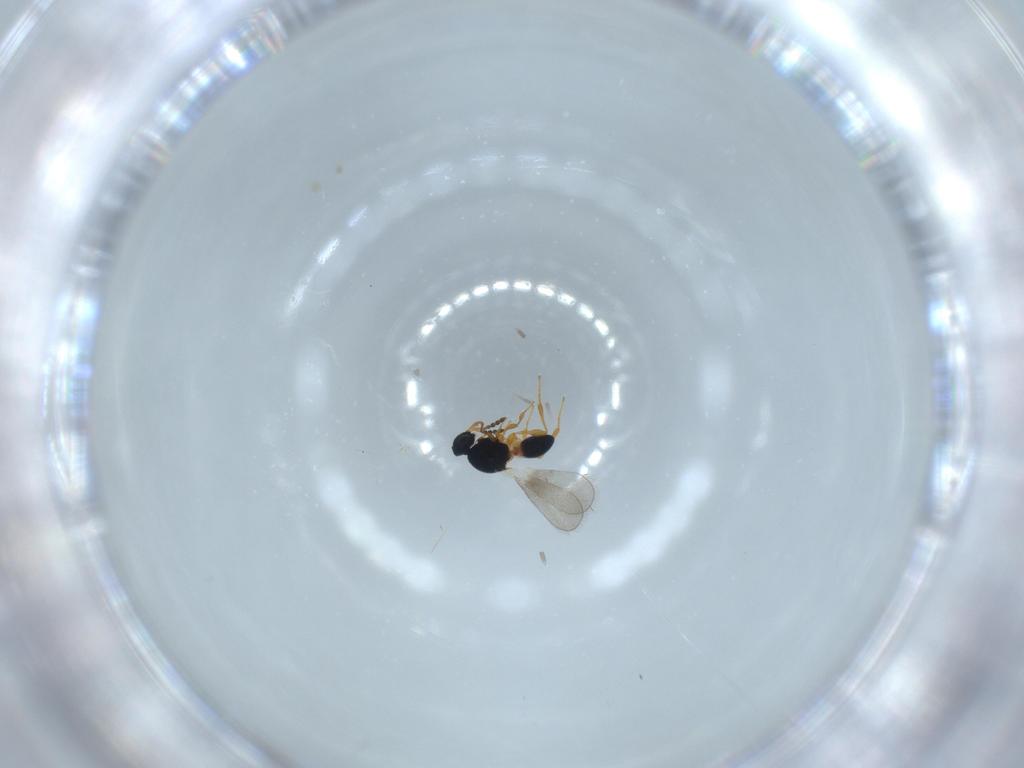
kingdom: Animalia
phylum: Arthropoda
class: Insecta
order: Hymenoptera
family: Platygastridae
